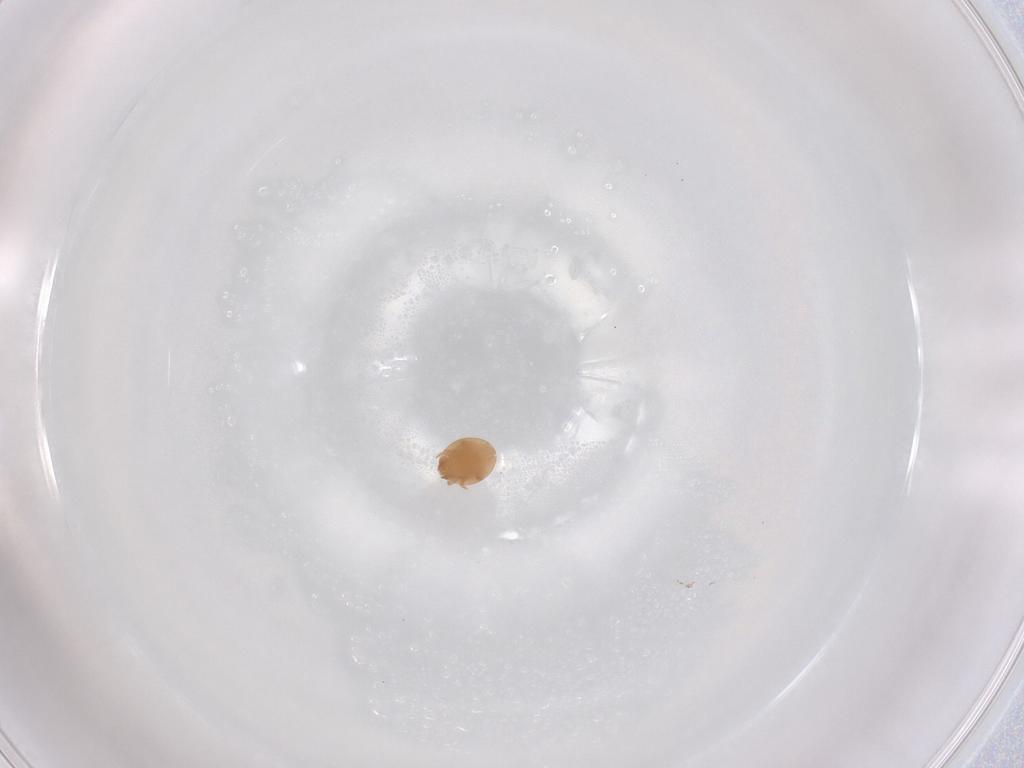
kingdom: Animalia
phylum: Arthropoda
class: Arachnida
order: Mesostigmata
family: Trematuridae
